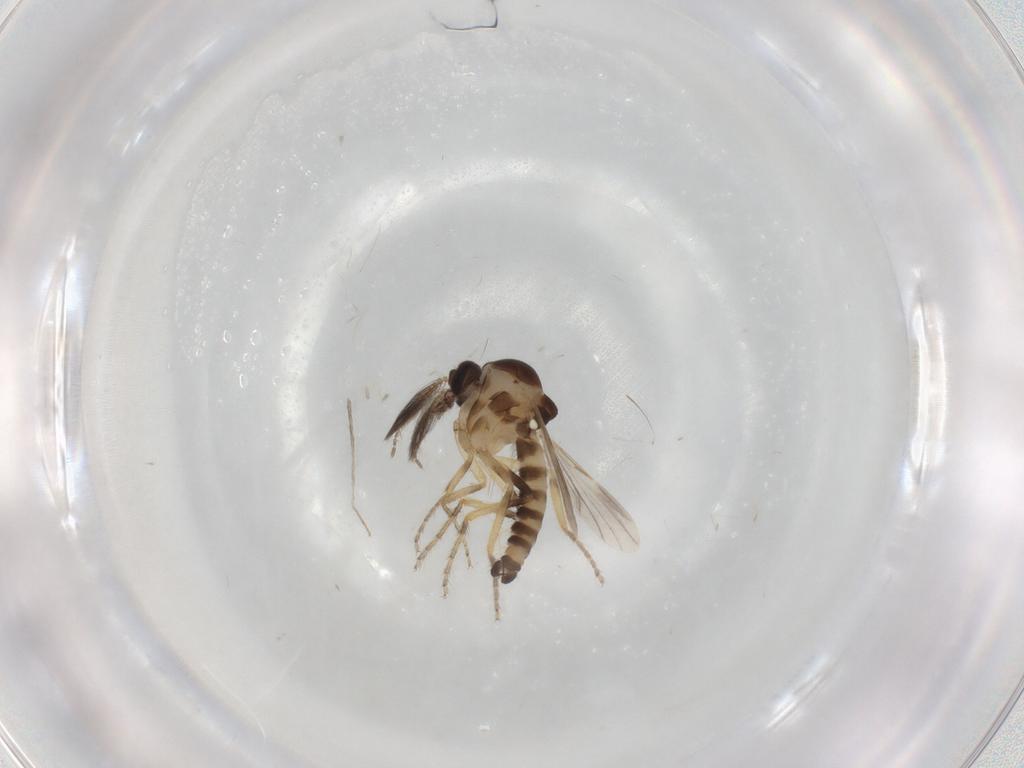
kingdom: Animalia
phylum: Arthropoda
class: Insecta
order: Diptera
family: Ceratopogonidae
